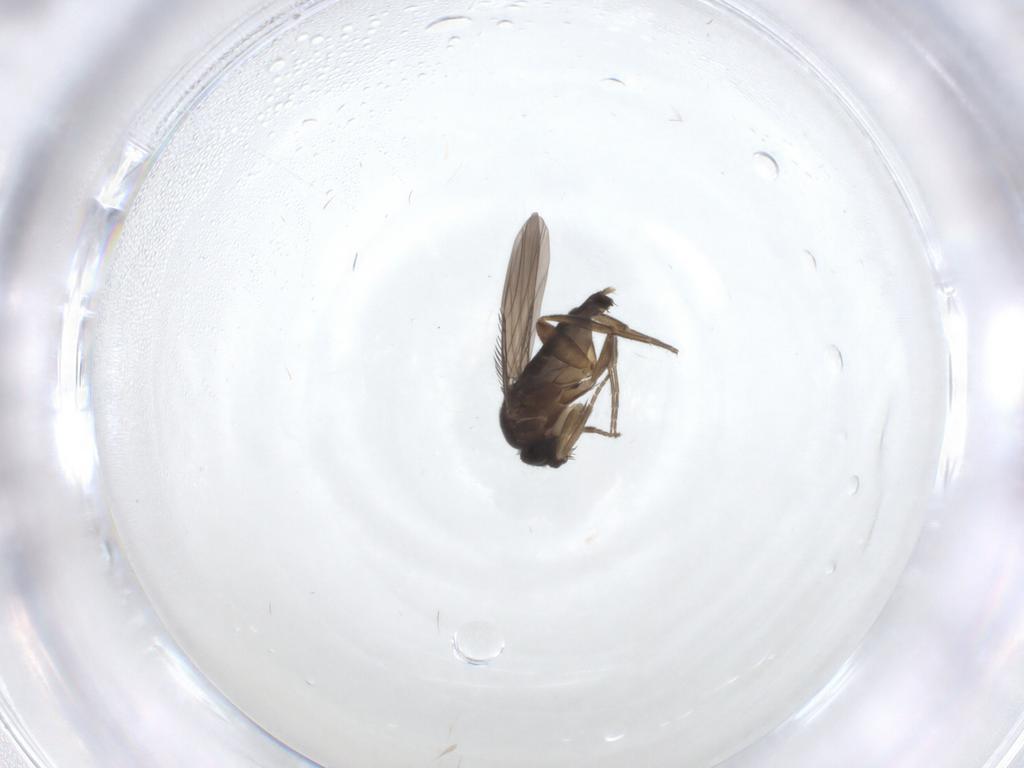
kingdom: Animalia
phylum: Arthropoda
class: Insecta
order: Diptera
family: Phoridae
